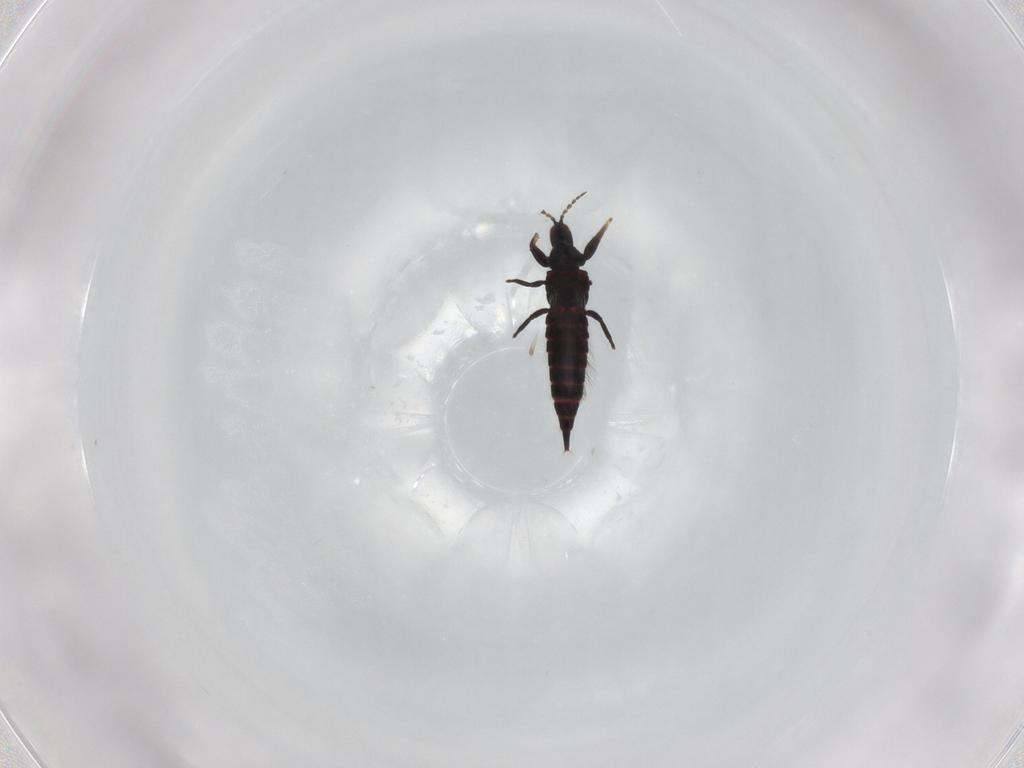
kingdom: Animalia
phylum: Arthropoda
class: Insecta
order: Thysanoptera
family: Phlaeothripidae
